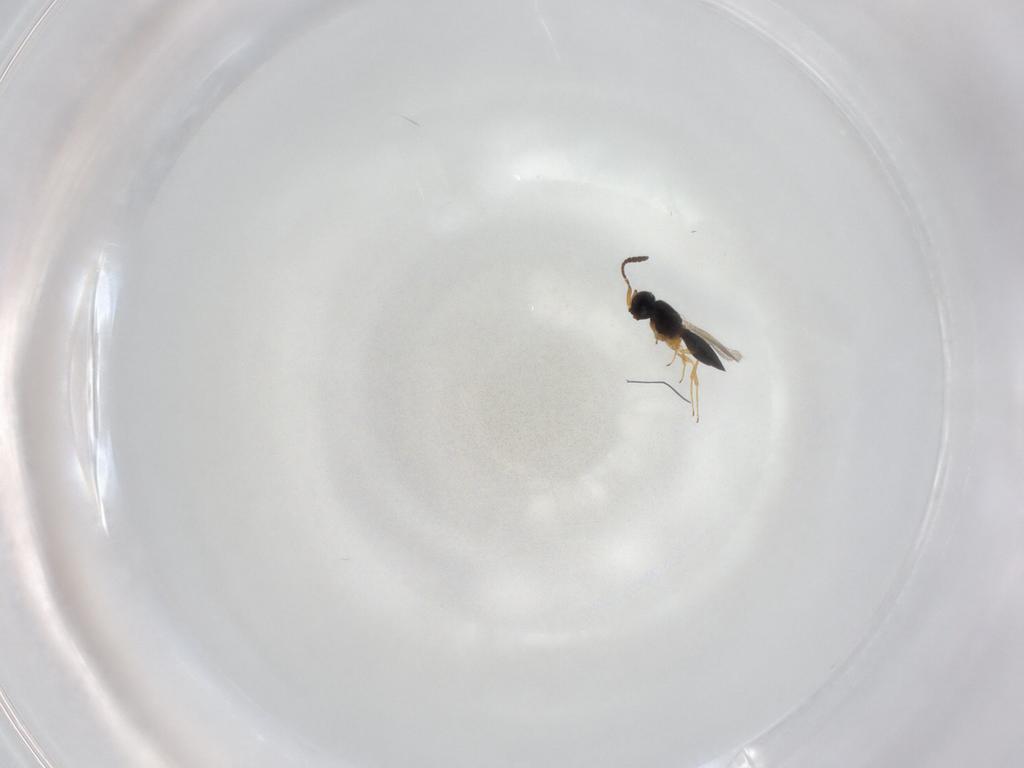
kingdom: Animalia
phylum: Arthropoda
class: Insecta
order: Hymenoptera
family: Scelionidae
